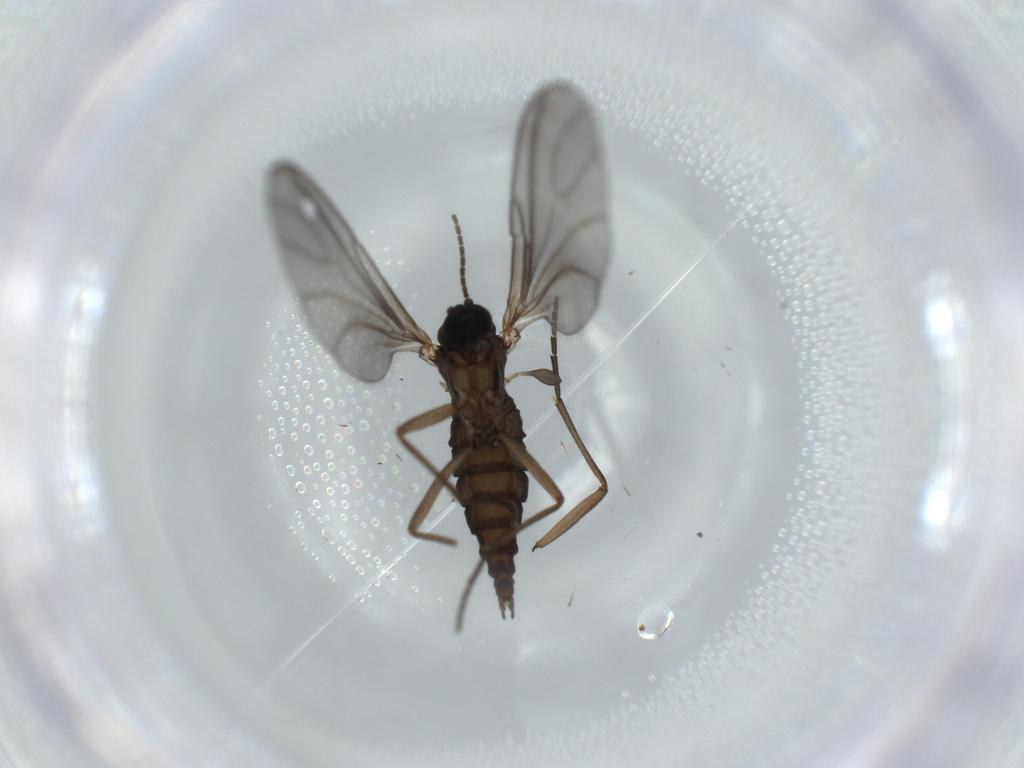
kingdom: Animalia
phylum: Arthropoda
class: Insecta
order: Diptera
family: Sciaridae
